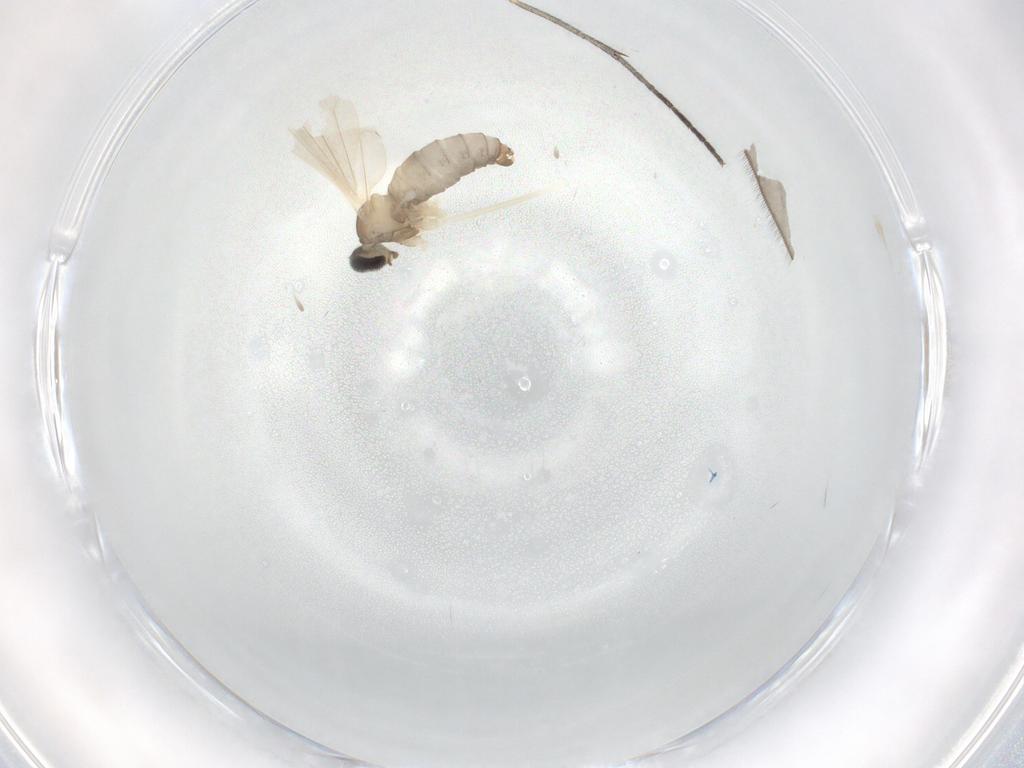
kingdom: Animalia
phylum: Arthropoda
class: Insecta
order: Diptera
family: Cecidomyiidae
